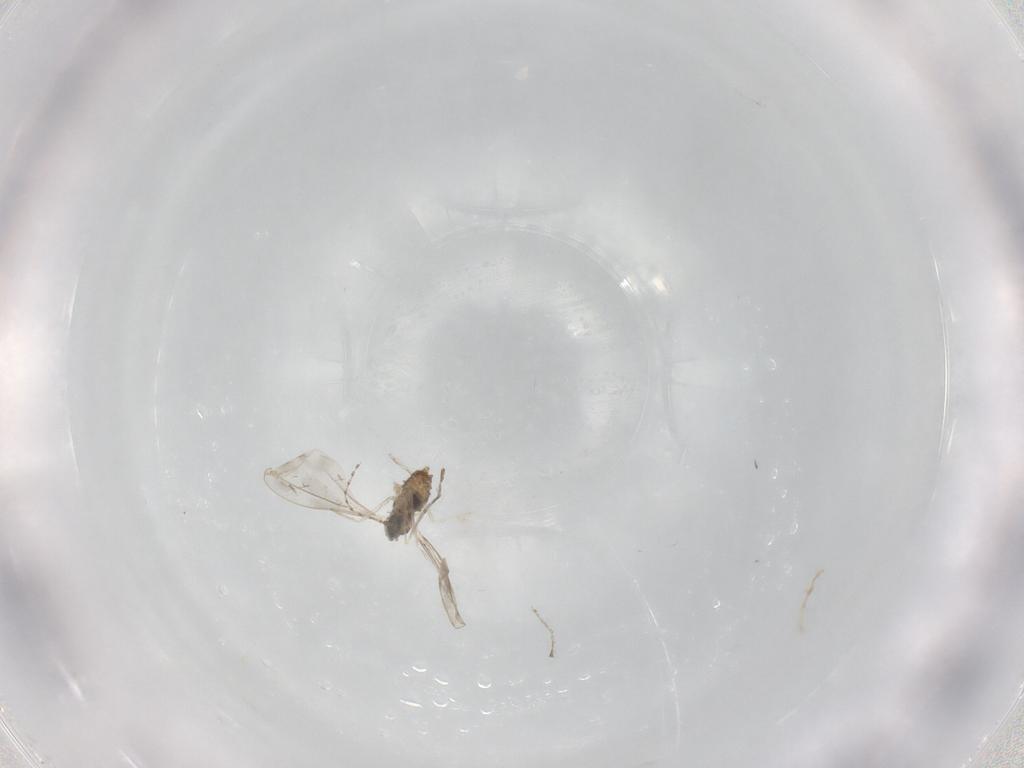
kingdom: Animalia
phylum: Arthropoda
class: Insecta
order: Diptera
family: Cecidomyiidae
